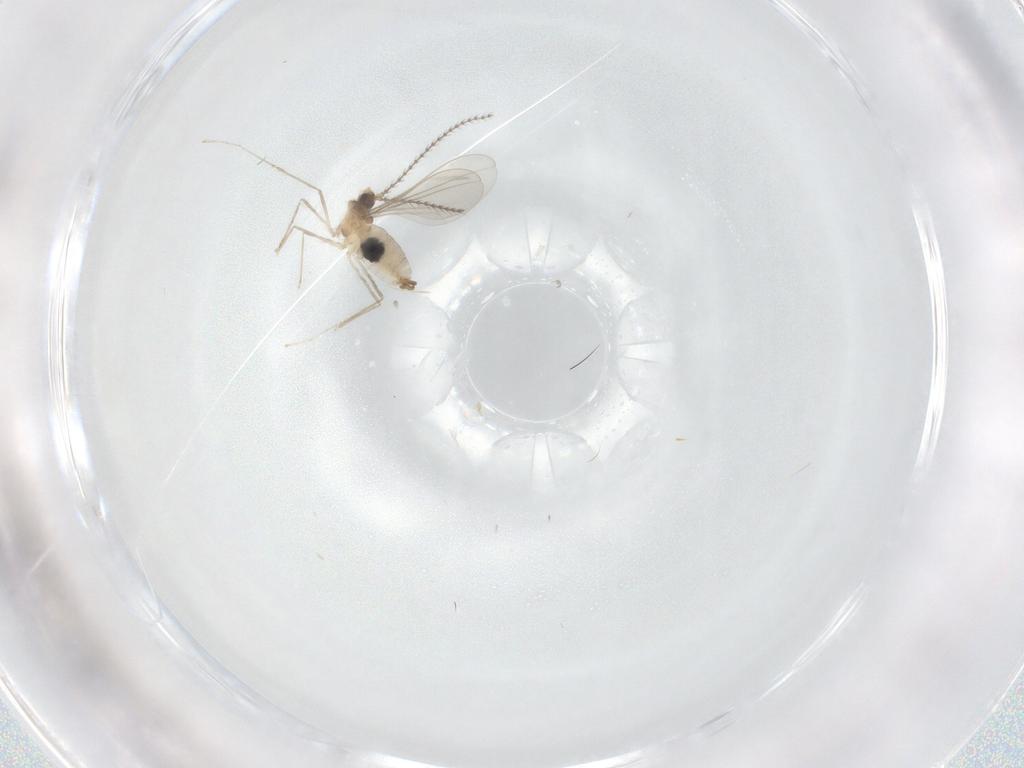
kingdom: Animalia
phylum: Arthropoda
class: Insecta
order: Diptera
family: Cecidomyiidae
